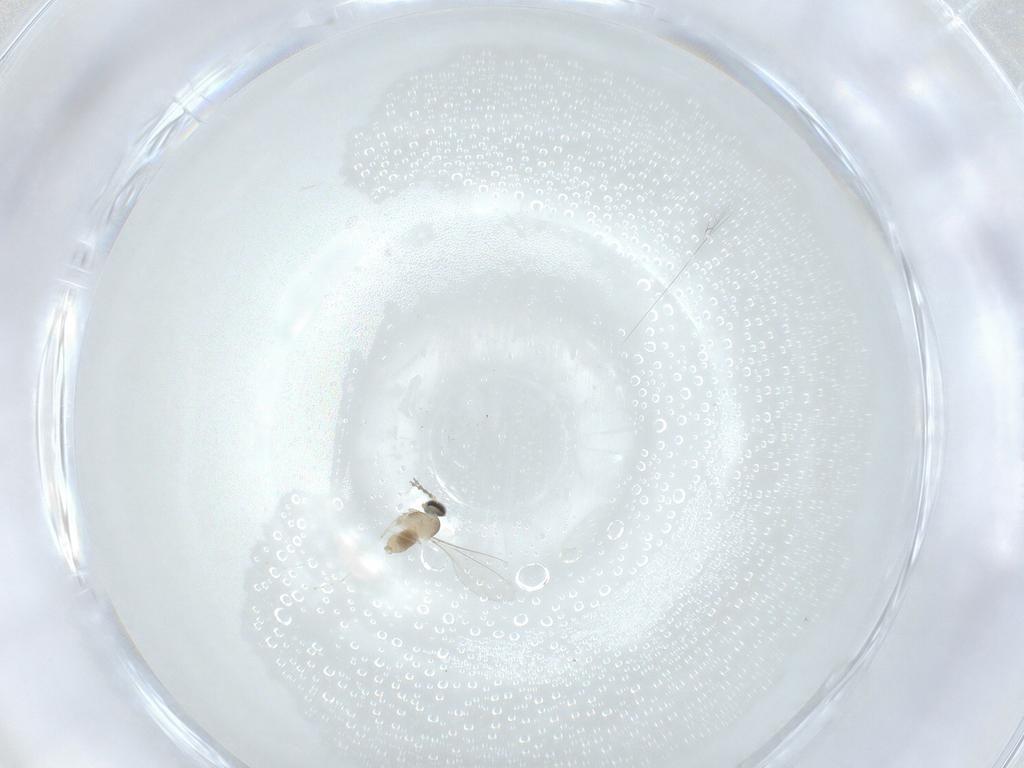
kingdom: Animalia
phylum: Arthropoda
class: Insecta
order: Diptera
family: Cecidomyiidae
